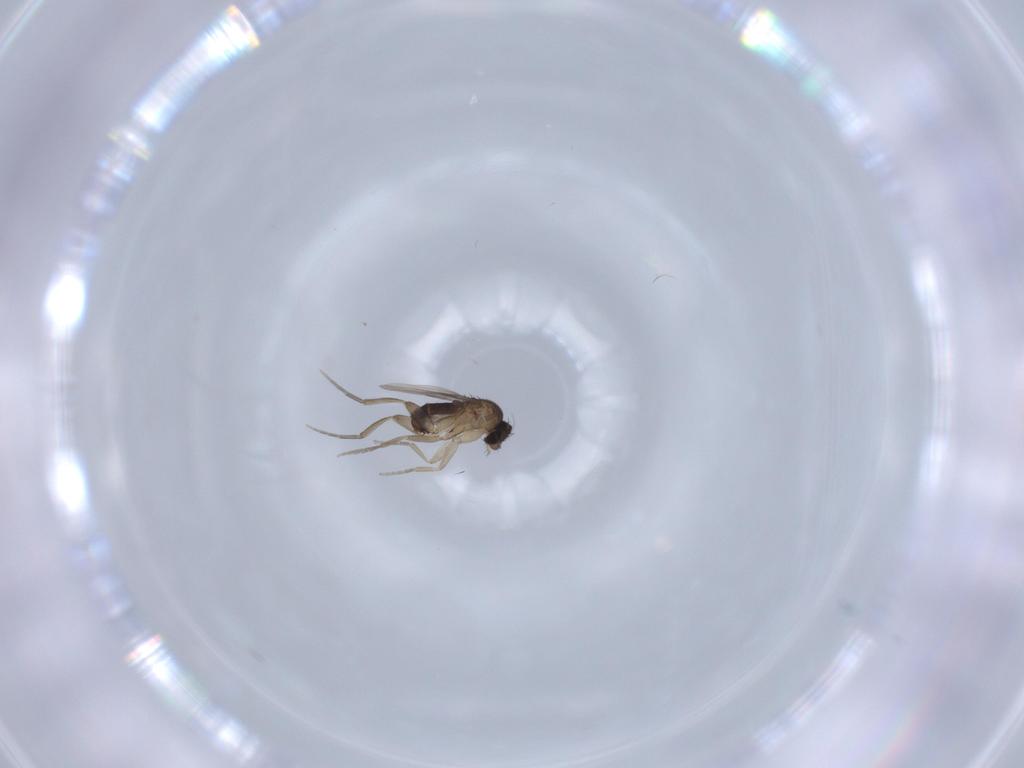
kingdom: Animalia
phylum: Arthropoda
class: Insecta
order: Diptera
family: Phoridae
